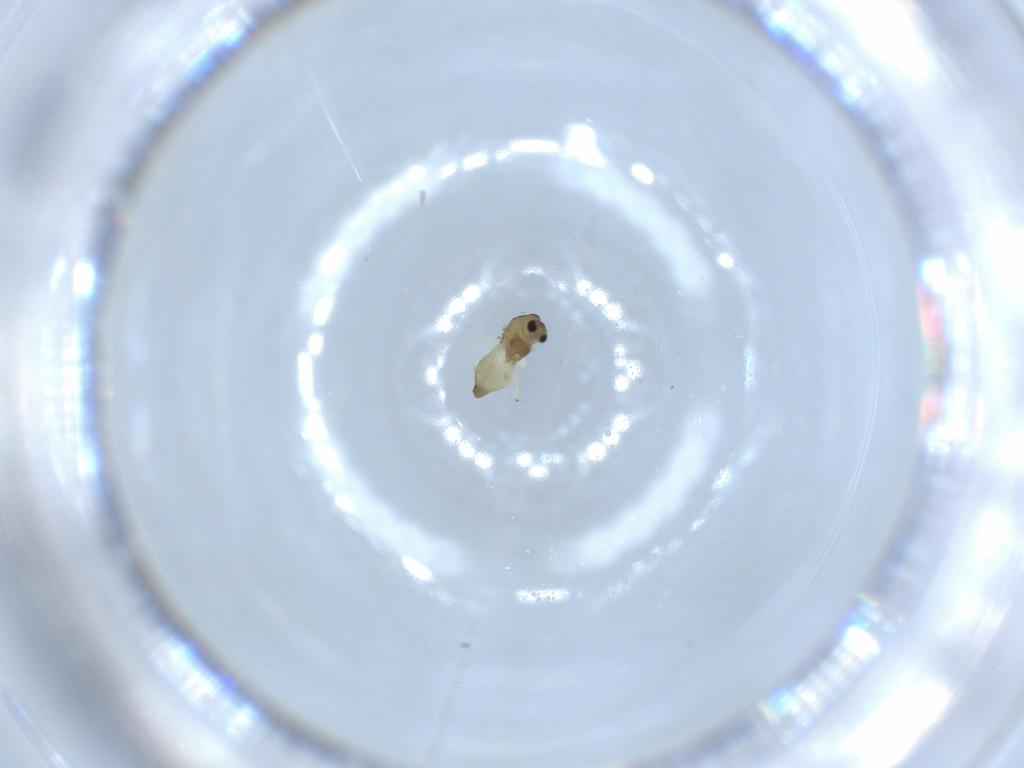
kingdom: Animalia
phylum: Arthropoda
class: Insecta
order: Diptera
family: Chironomidae
